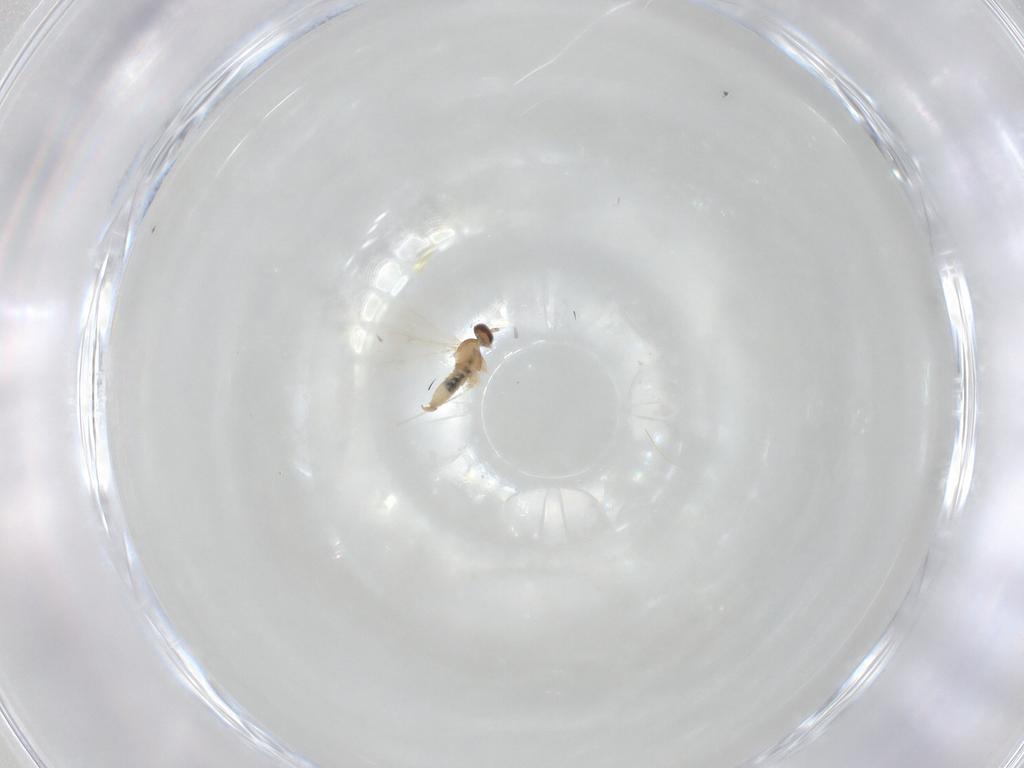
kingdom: Animalia
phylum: Arthropoda
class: Insecta
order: Diptera
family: Cecidomyiidae
